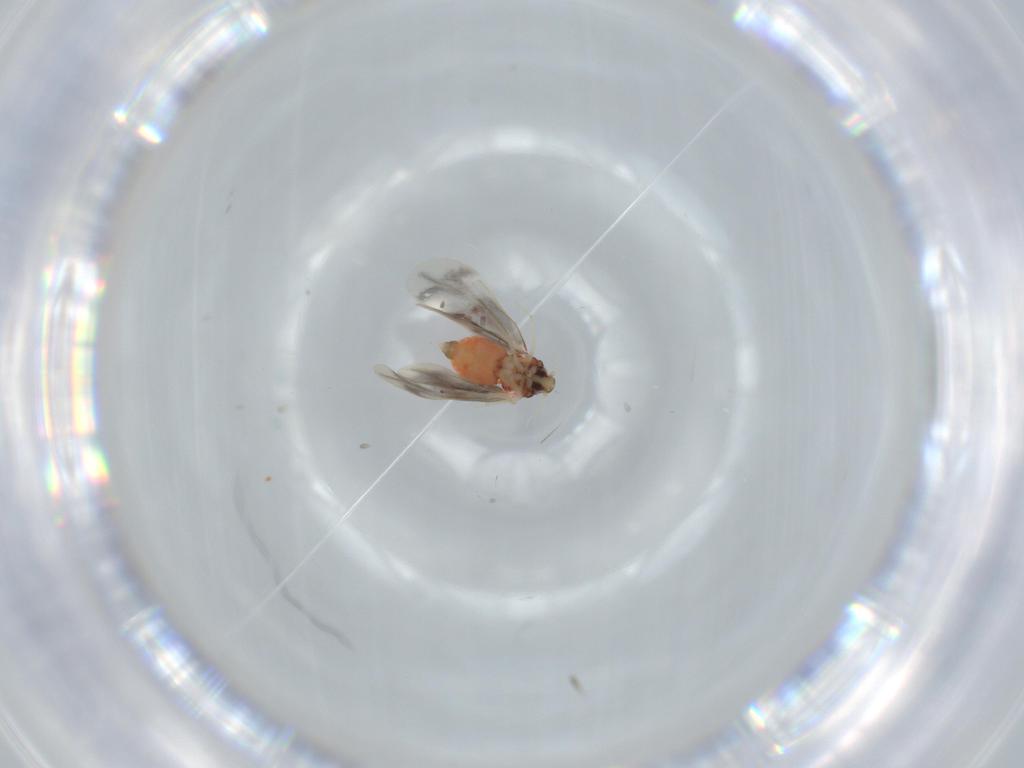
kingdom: Animalia
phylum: Arthropoda
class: Insecta
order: Hemiptera
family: Aleyrodidae
